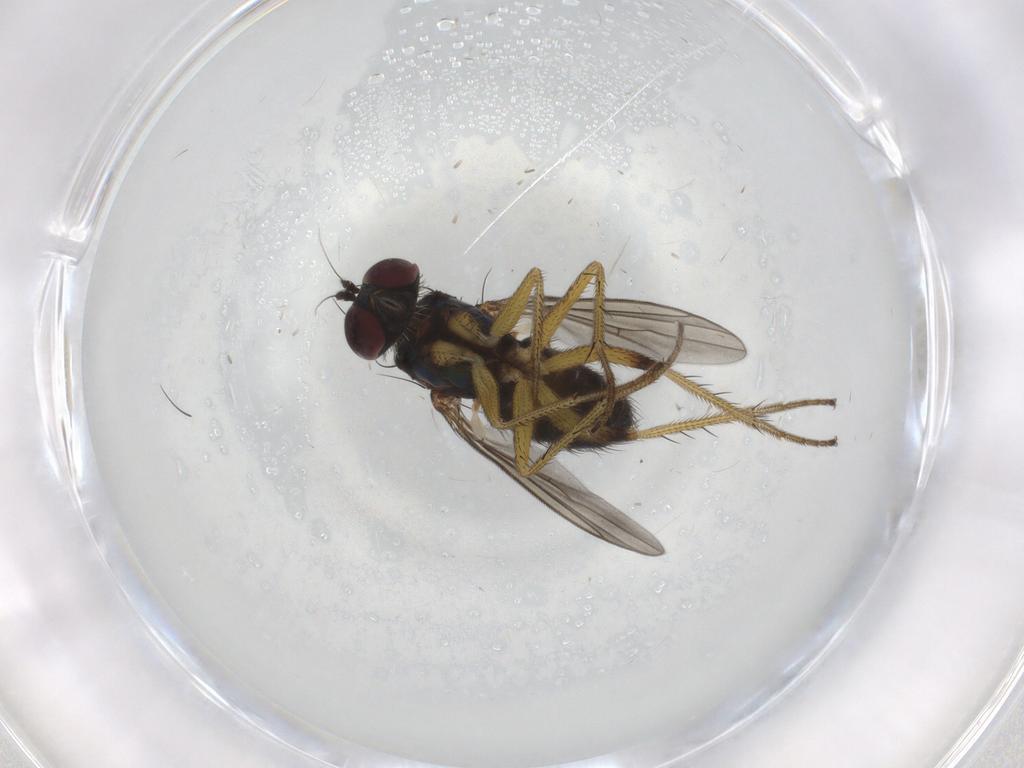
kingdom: Animalia
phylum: Arthropoda
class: Insecta
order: Diptera
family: Dolichopodidae
